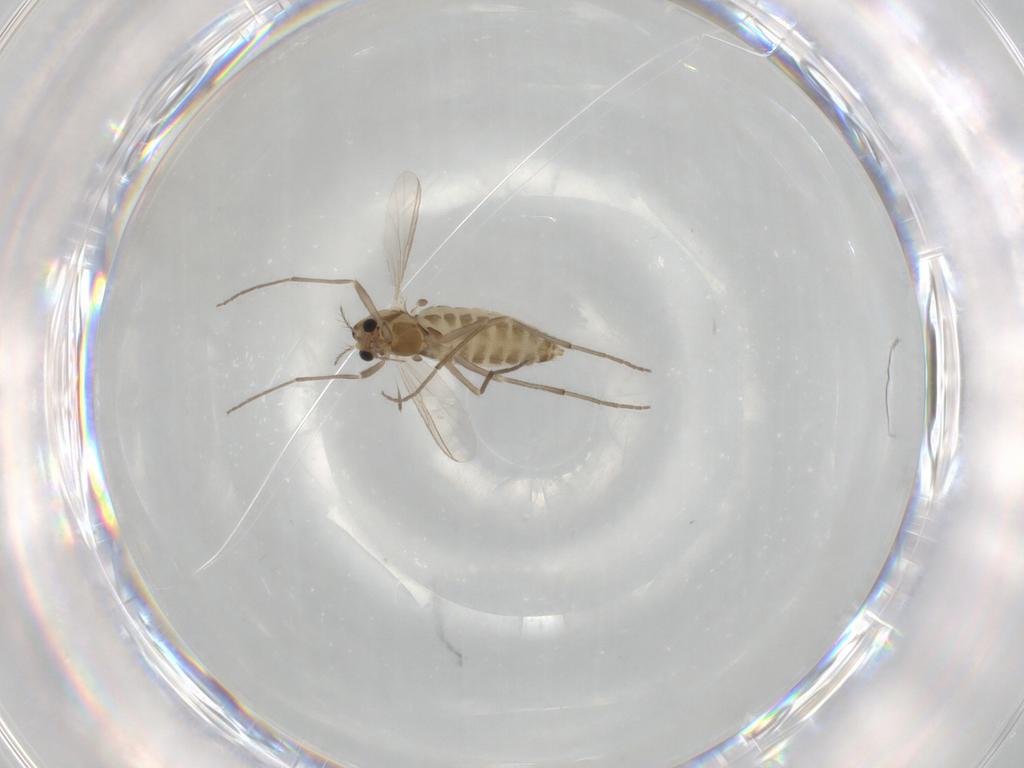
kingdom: Animalia
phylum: Arthropoda
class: Insecta
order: Diptera
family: Chironomidae
